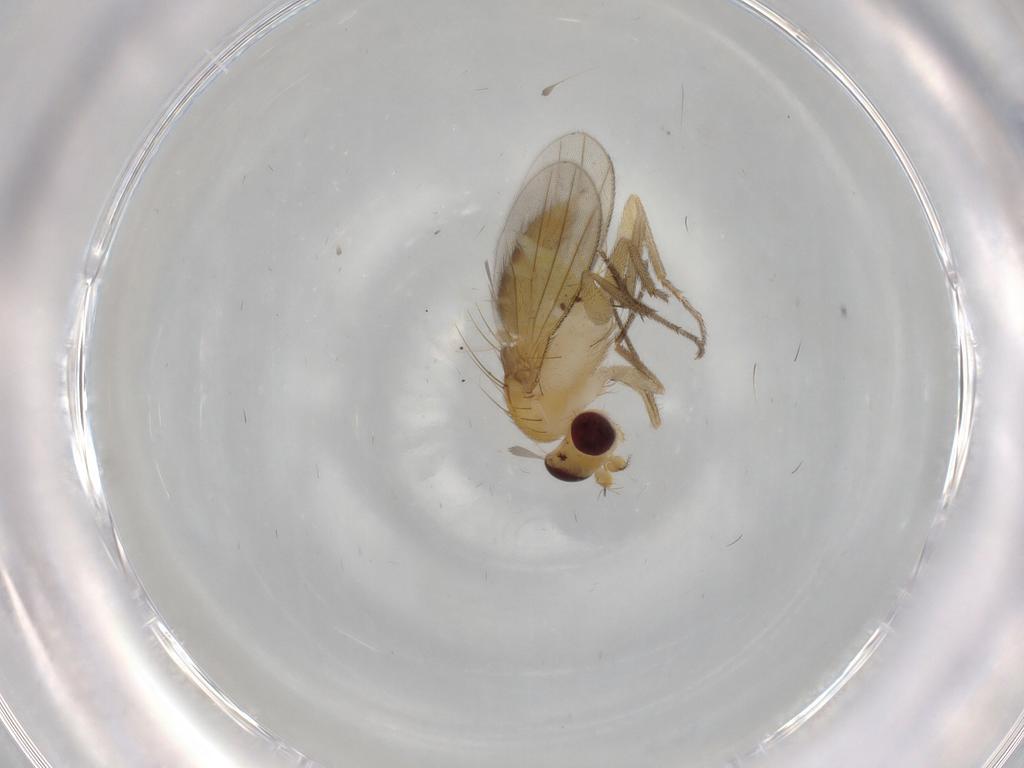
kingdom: Animalia
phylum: Arthropoda
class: Insecta
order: Diptera
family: Clusiidae
